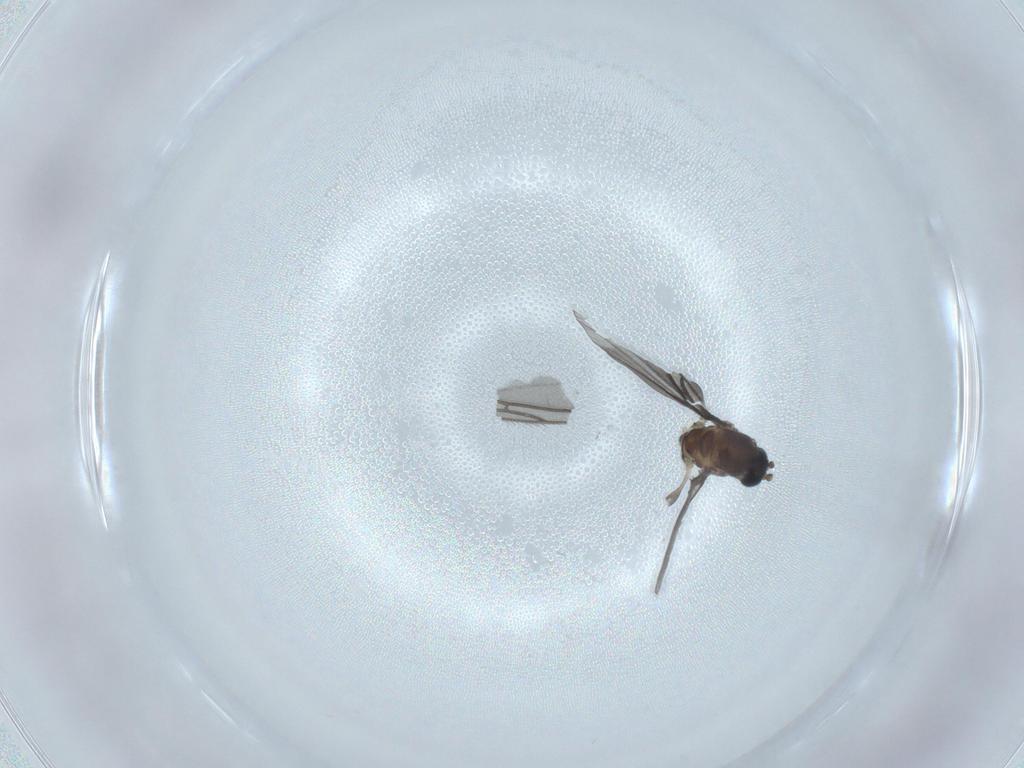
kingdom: Animalia
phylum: Arthropoda
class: Insecta
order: Diptera
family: Sciaridae
